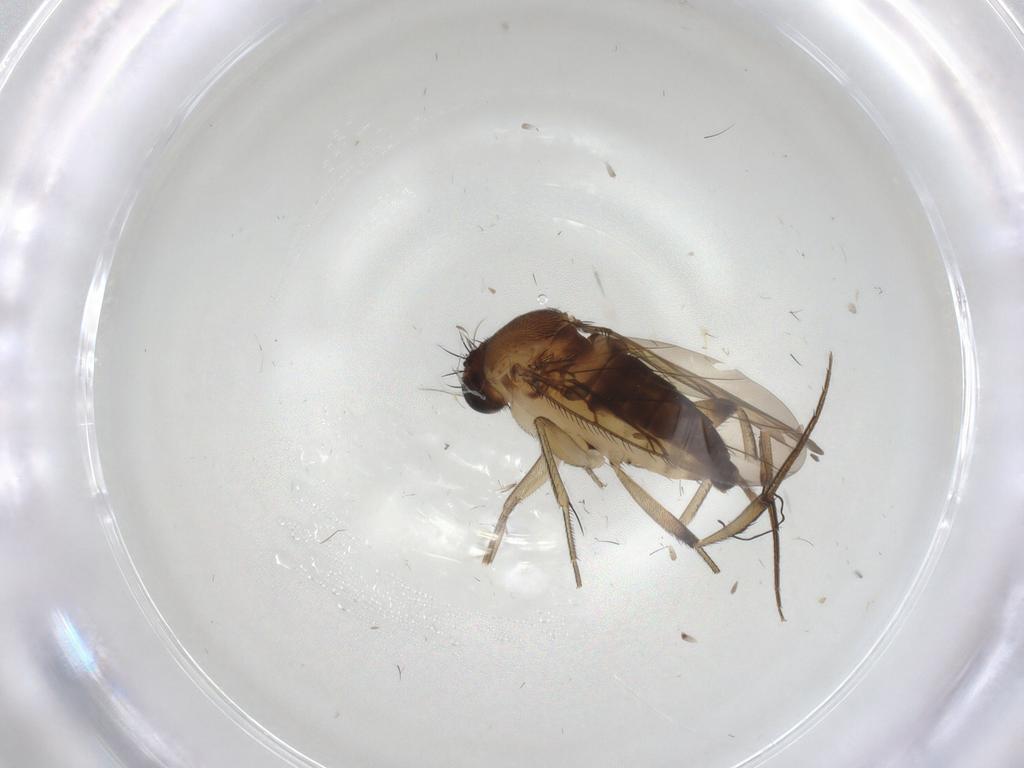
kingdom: Animalia
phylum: Arthropoda
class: Insecta
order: Diptera
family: Phoridae
